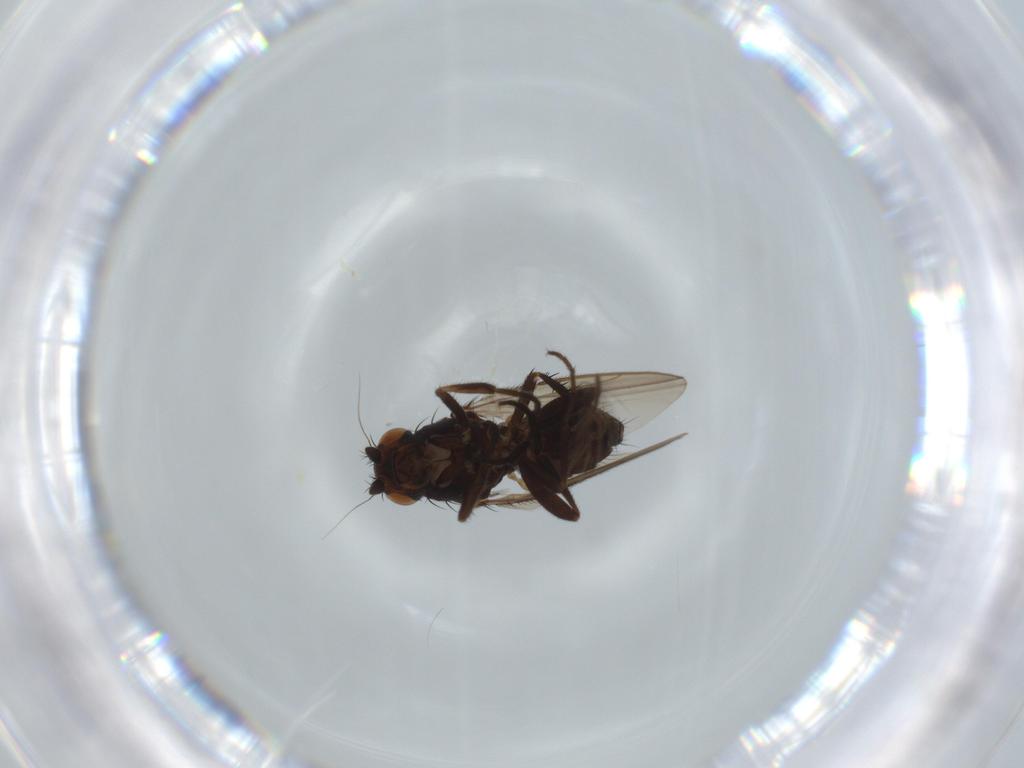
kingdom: Animalia
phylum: Arthropoda
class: Insecta
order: Diptera
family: Sphaeroceridae
